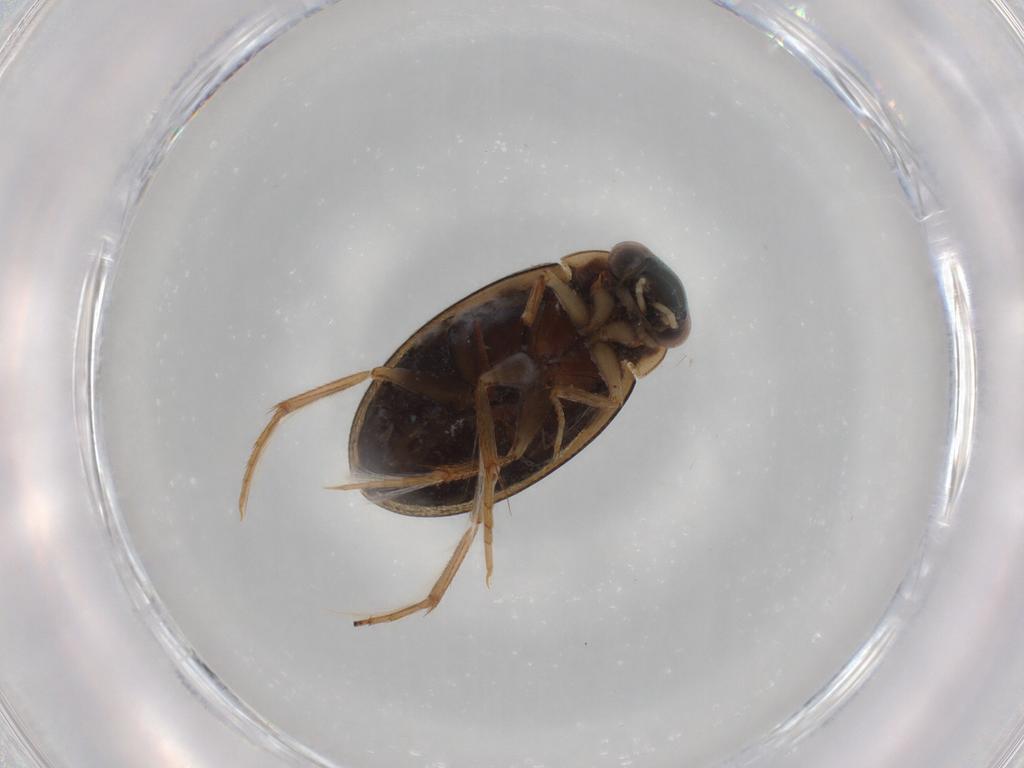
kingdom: Animalia
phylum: Arthropoda
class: Insecta
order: Coleoptera
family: Hydrophilidae
